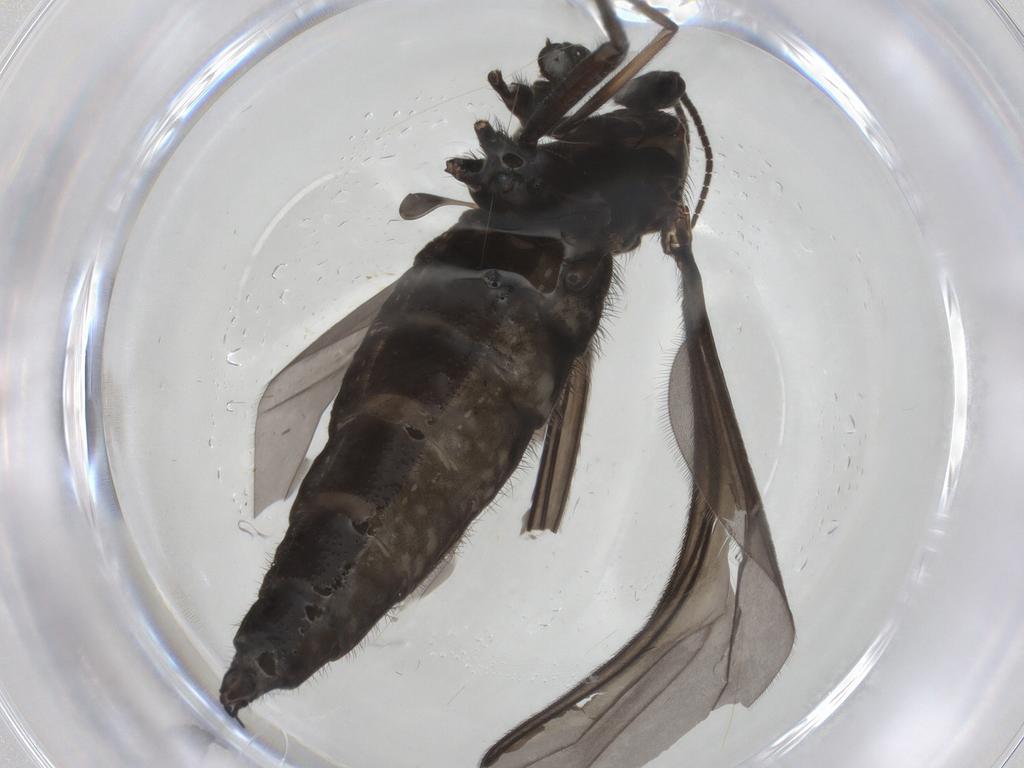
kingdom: Animalia
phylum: Arthropoda
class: Insecta
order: Diptera
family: Sciaridae
